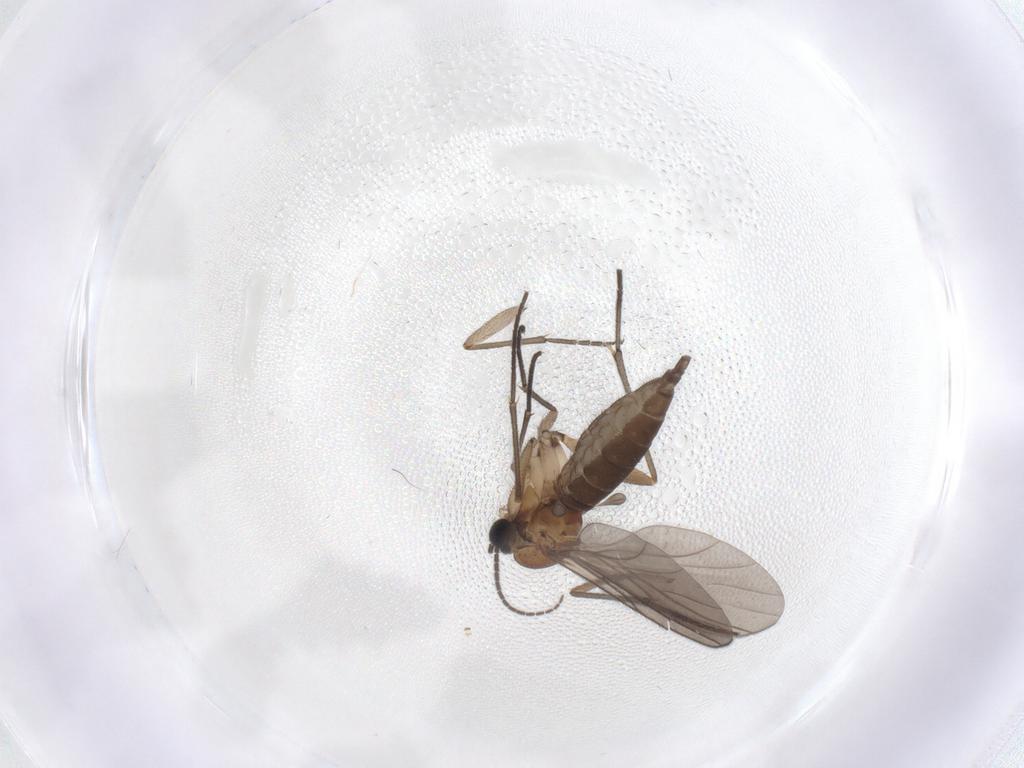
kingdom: Animalia
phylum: Arthropoda
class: Insecta
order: Diptera
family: Sciaridae
